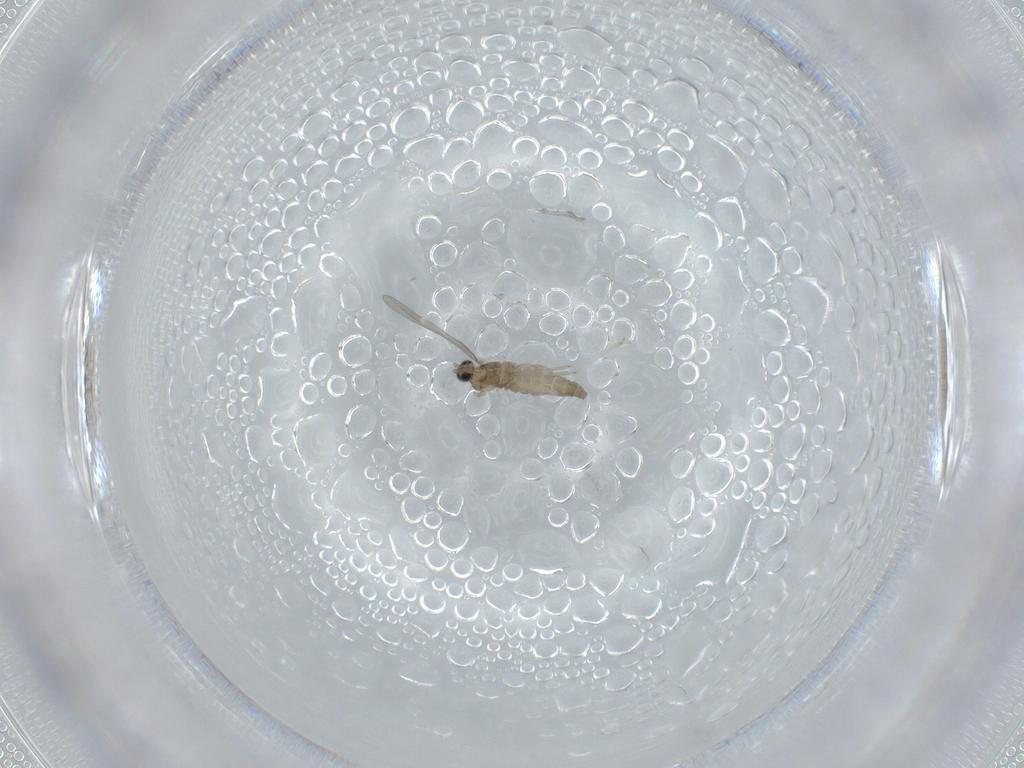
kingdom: Animalia
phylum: Arthropoda
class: Insecta
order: Diptera
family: Cecidomyiidae
